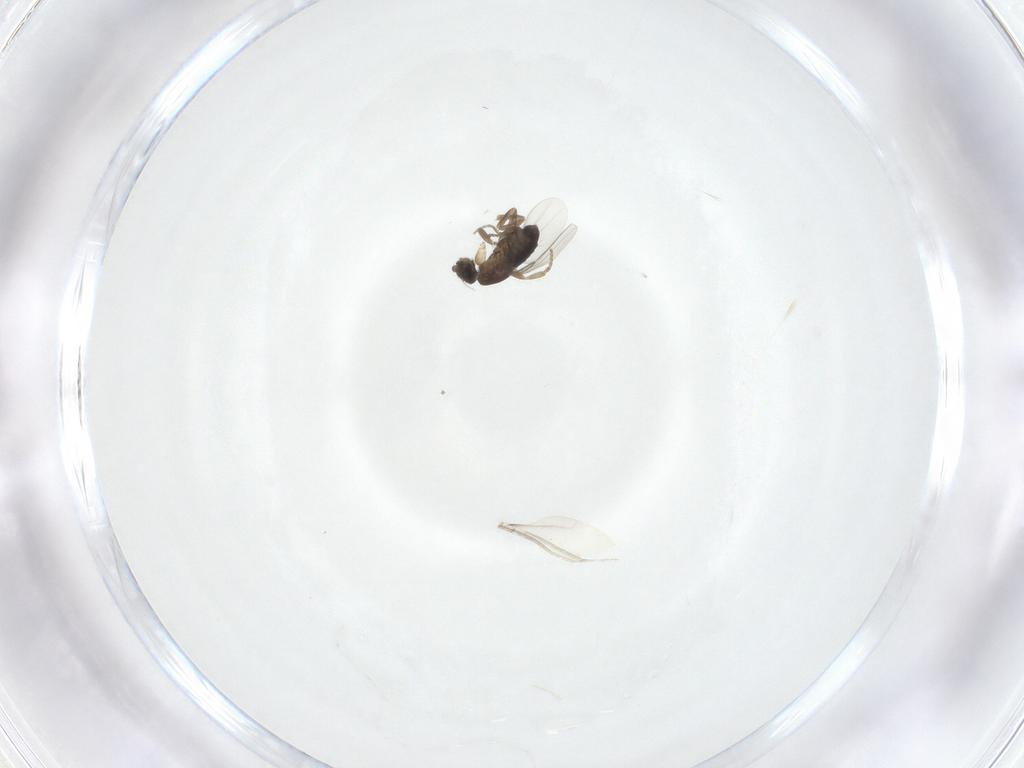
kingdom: Animalia
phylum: Arthropoda
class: Insecta
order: Diptera
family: Phoridae
